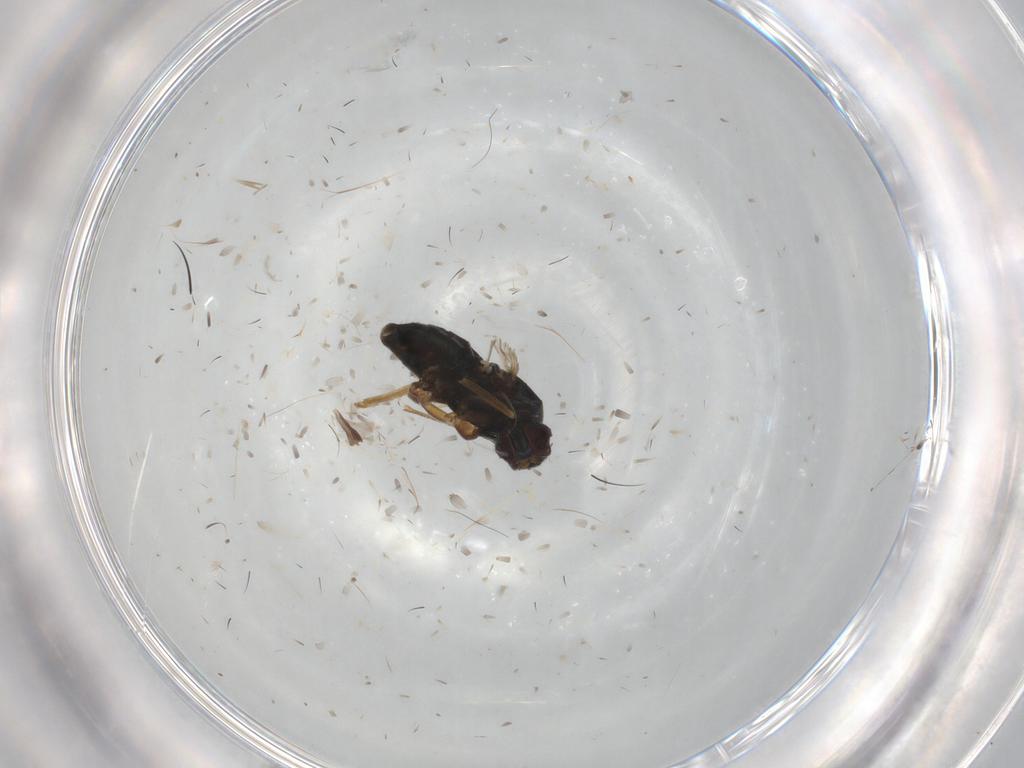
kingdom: Animalia
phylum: Arthropoda
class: Insecta
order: Diptera
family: Dolichopodidae
